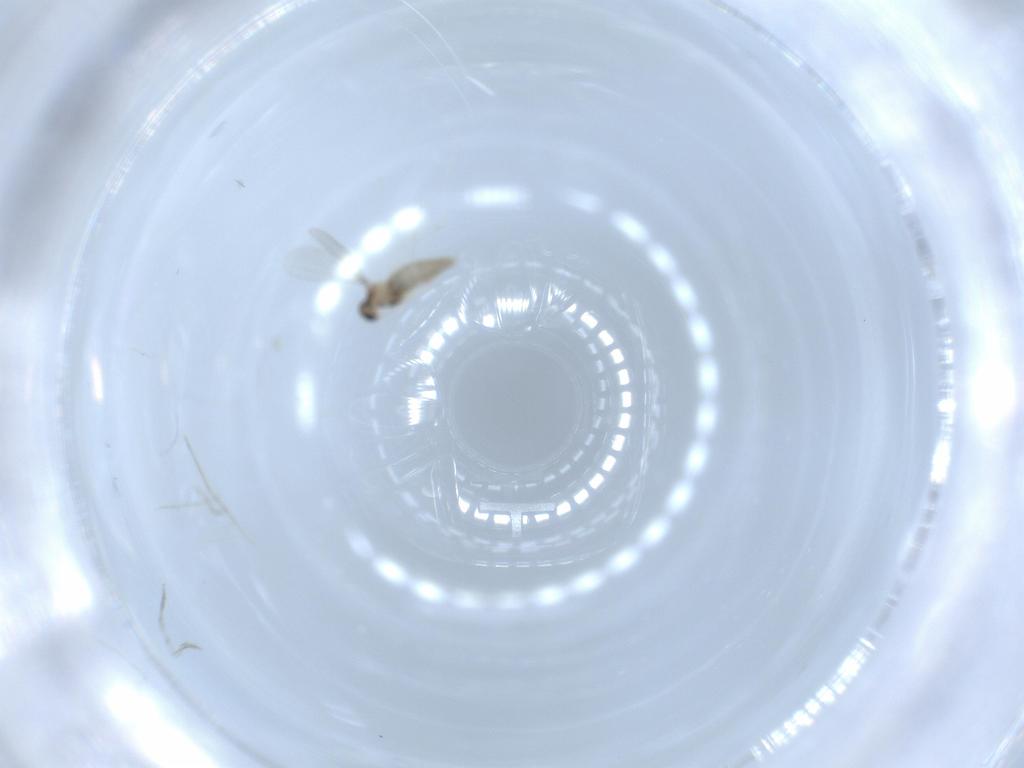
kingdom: Animalia
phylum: Arthropoda
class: Insecta
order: Diptera
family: Cecidomyiidae
